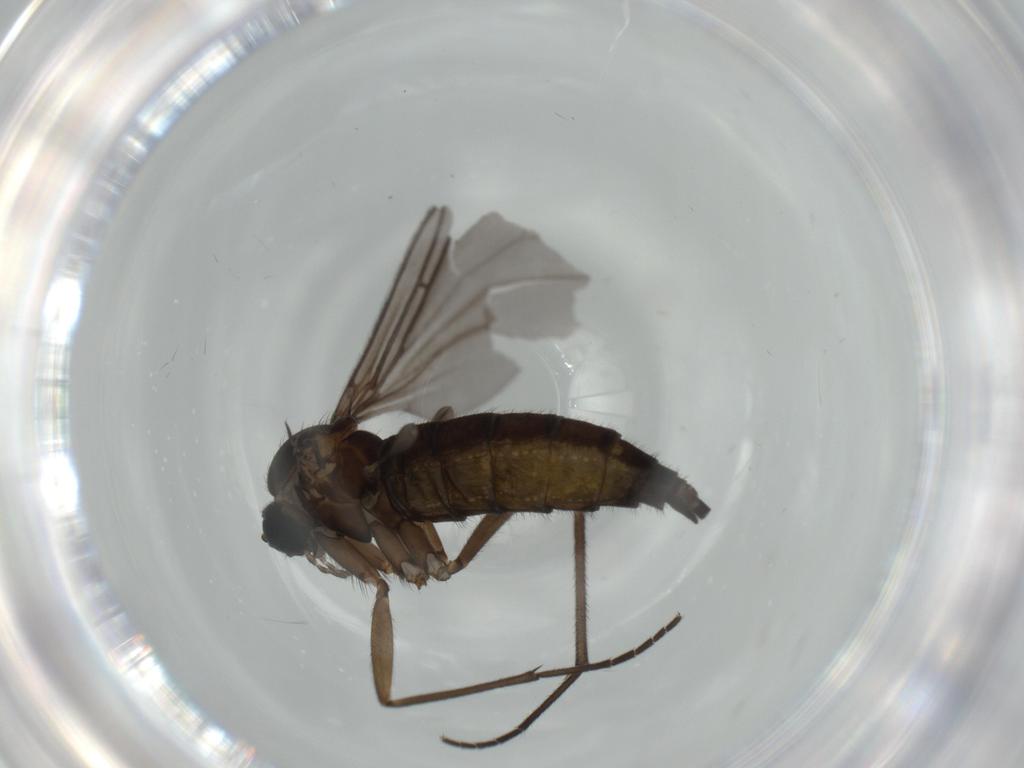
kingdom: Animalia
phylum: Arthropoda
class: Insecta
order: Diptera
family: Sciaridae
